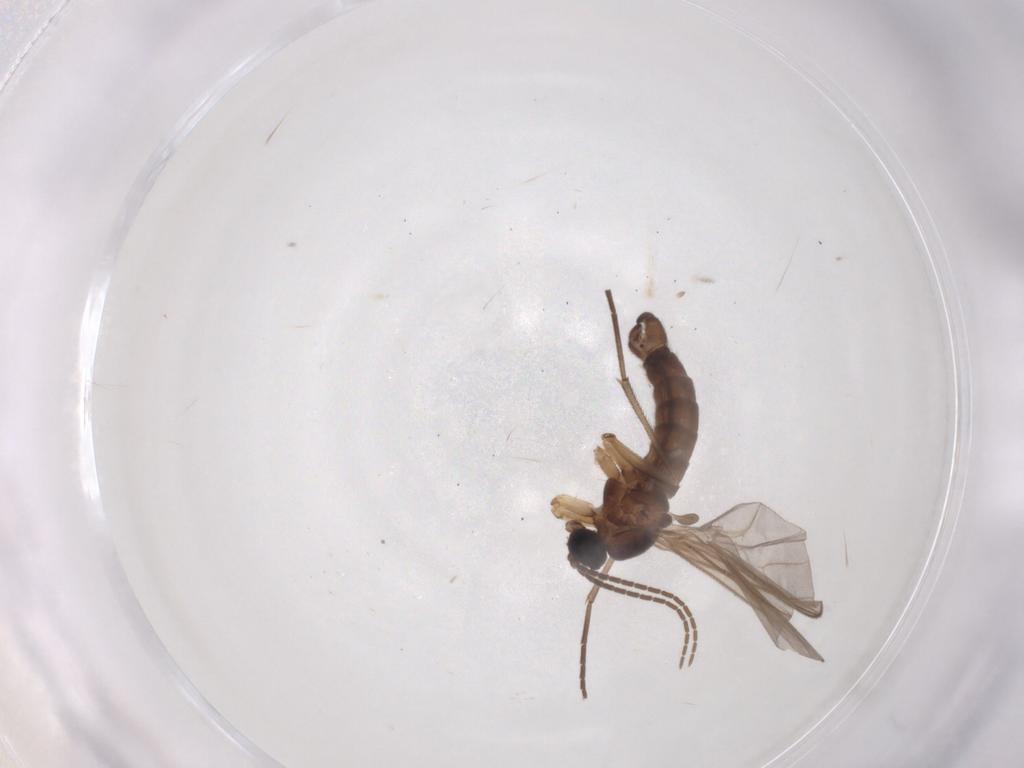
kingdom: Animalia
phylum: Arthropoda
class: Insecta
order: Diptera
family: Sciaridae
